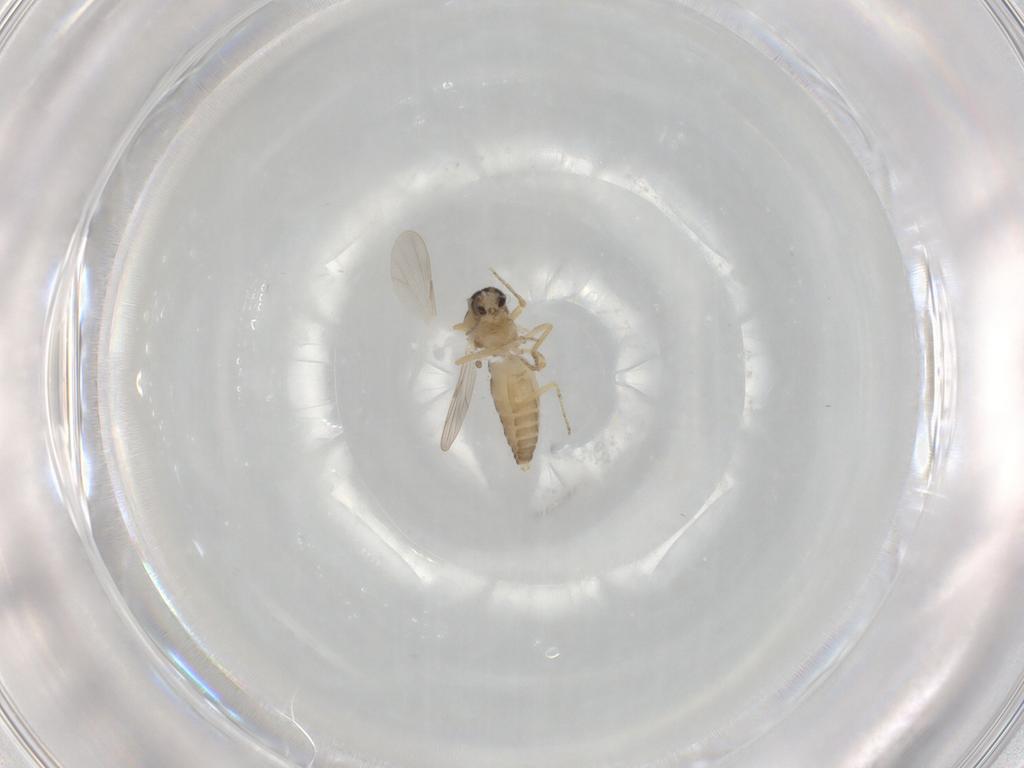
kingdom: Animalia
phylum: Arthropoda
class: Insecta
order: Diptera
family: Ceratopogonidae
